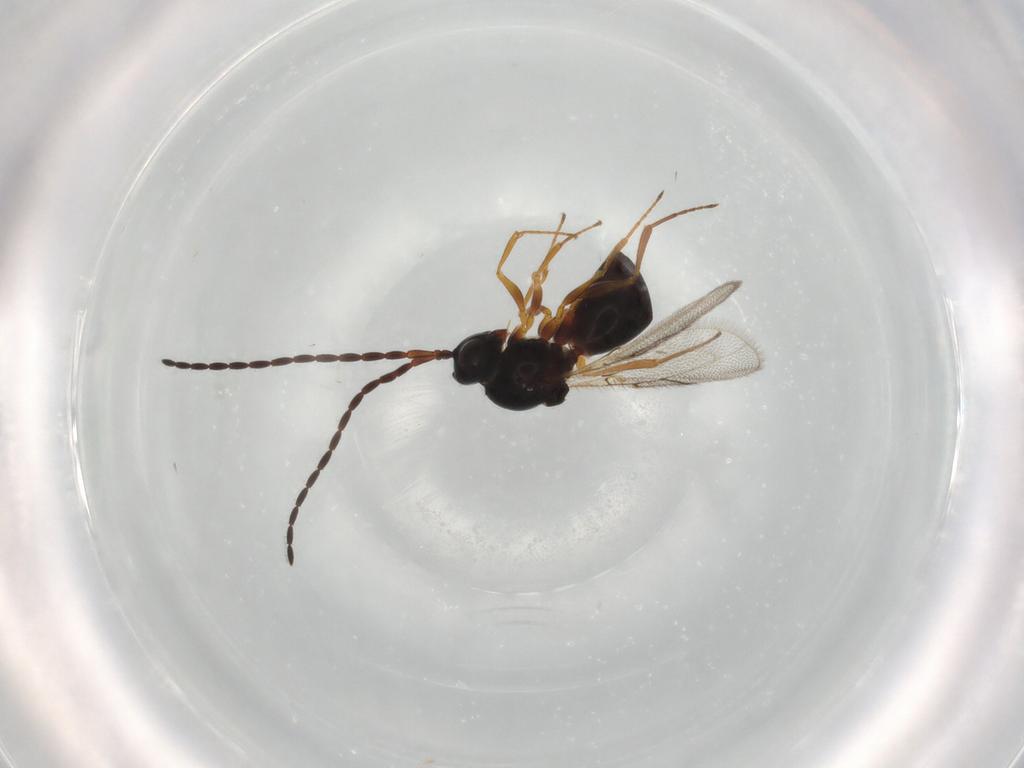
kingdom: Animalia
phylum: Arthropoda
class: Insecta
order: Hymenoptera
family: Figitidae
